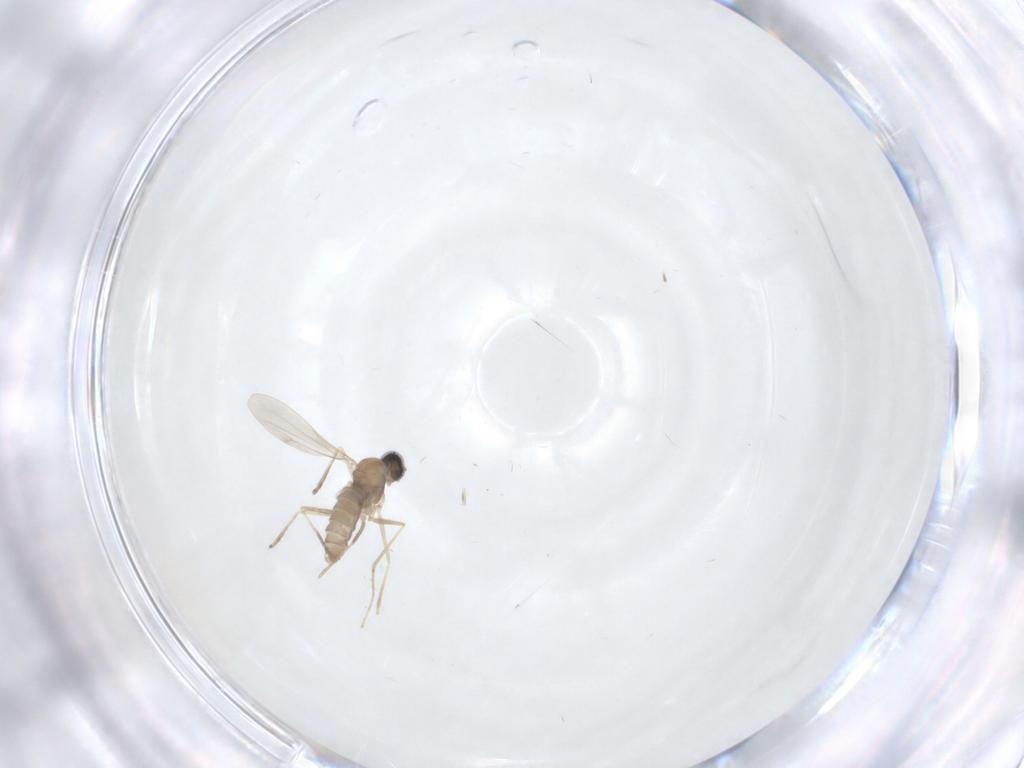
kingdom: Animalia
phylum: Arthropoda
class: Insecta
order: Diptera
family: Cecidomyiidae
